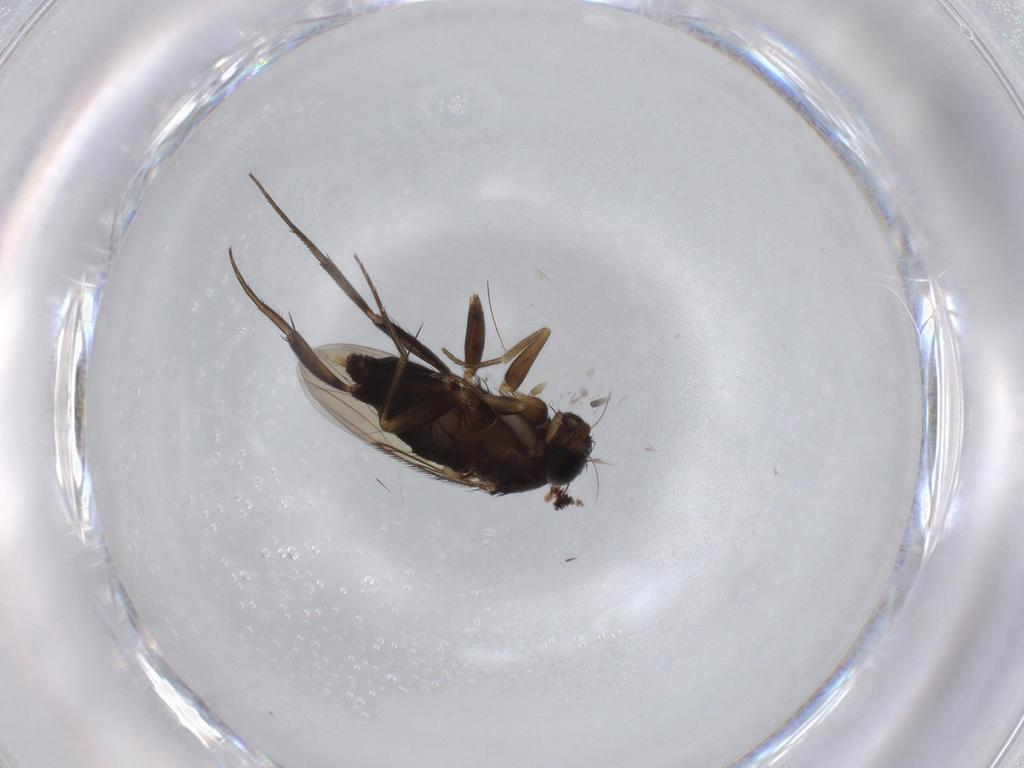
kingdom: Animalia
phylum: Arthropoda
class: Insecta
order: Diptera
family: Phoridae
